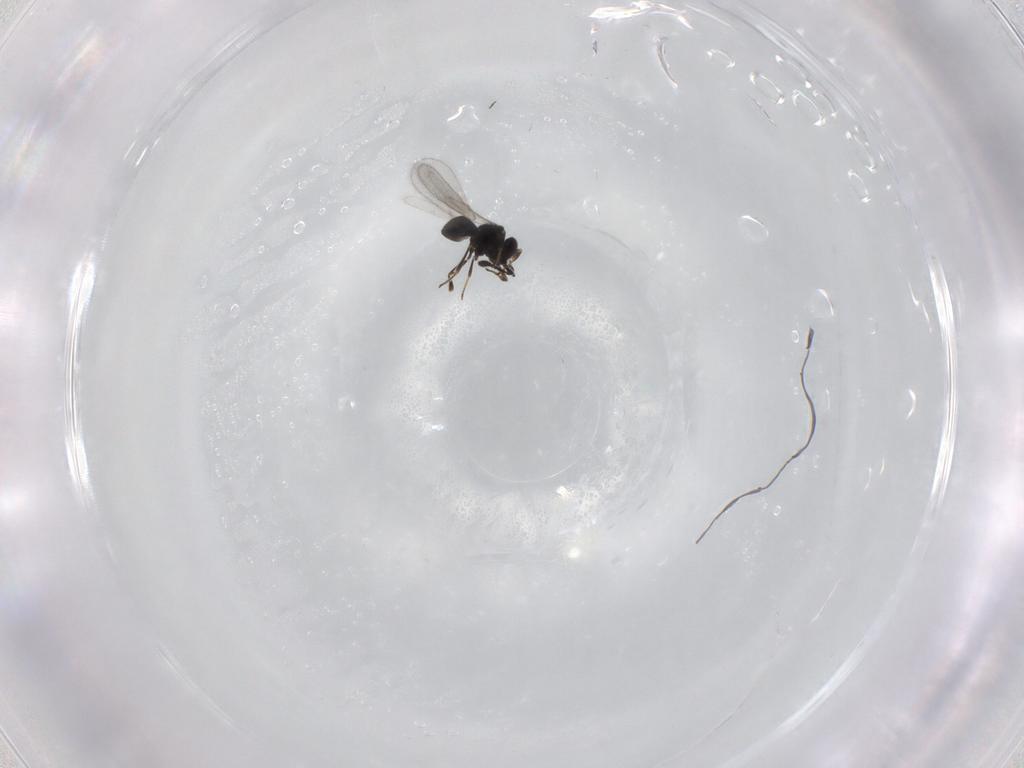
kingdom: Animalia
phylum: Arthropoda
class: Insecta
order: Hymenoptera
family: Scelionidae
